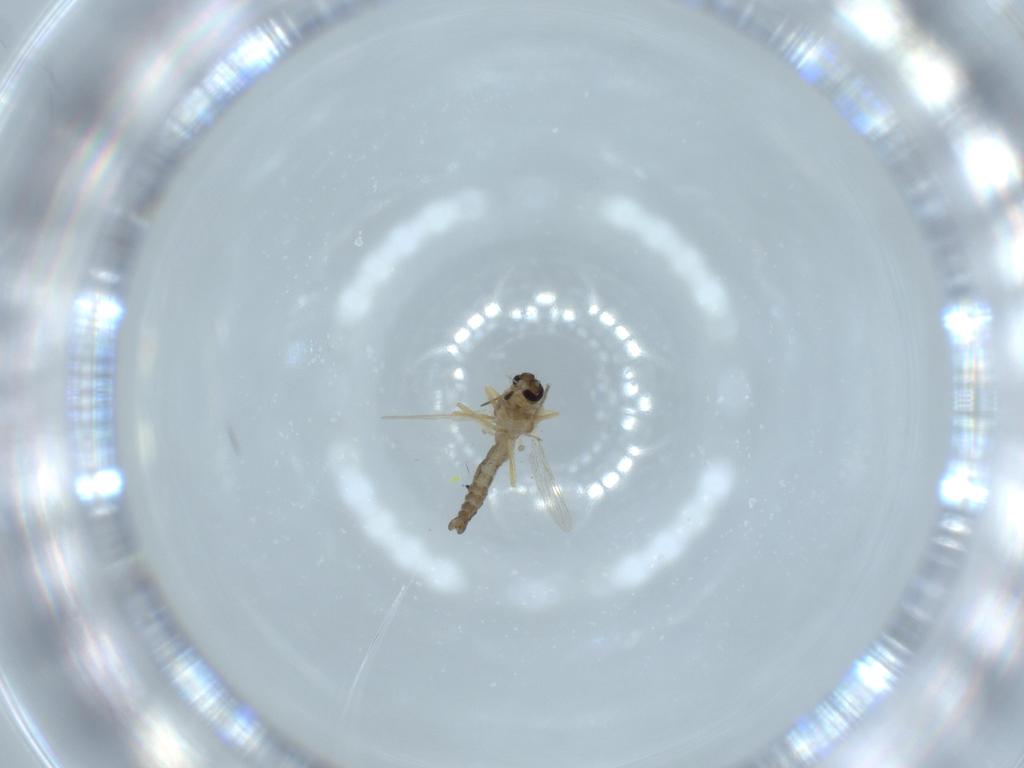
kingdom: Animalia
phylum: Arthropoda
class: Insecta
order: Diptera
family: Ceratopogonidae
